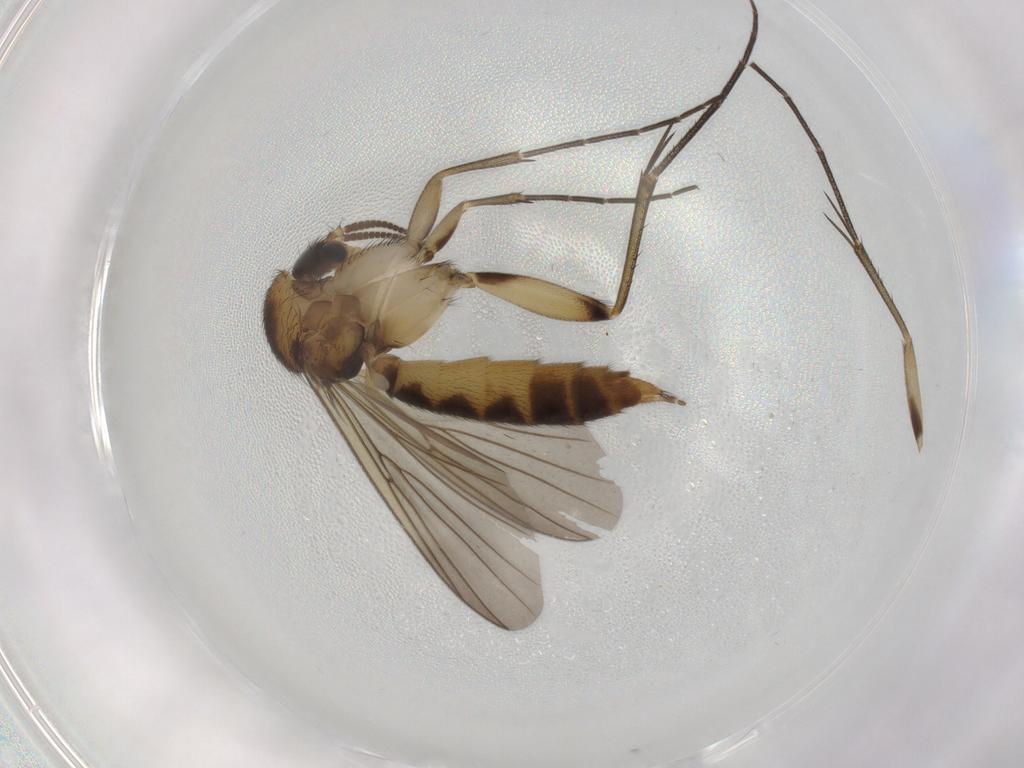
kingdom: Animalia
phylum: Arthropoda
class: Insecta
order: Diptera
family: Mycetophilidae
